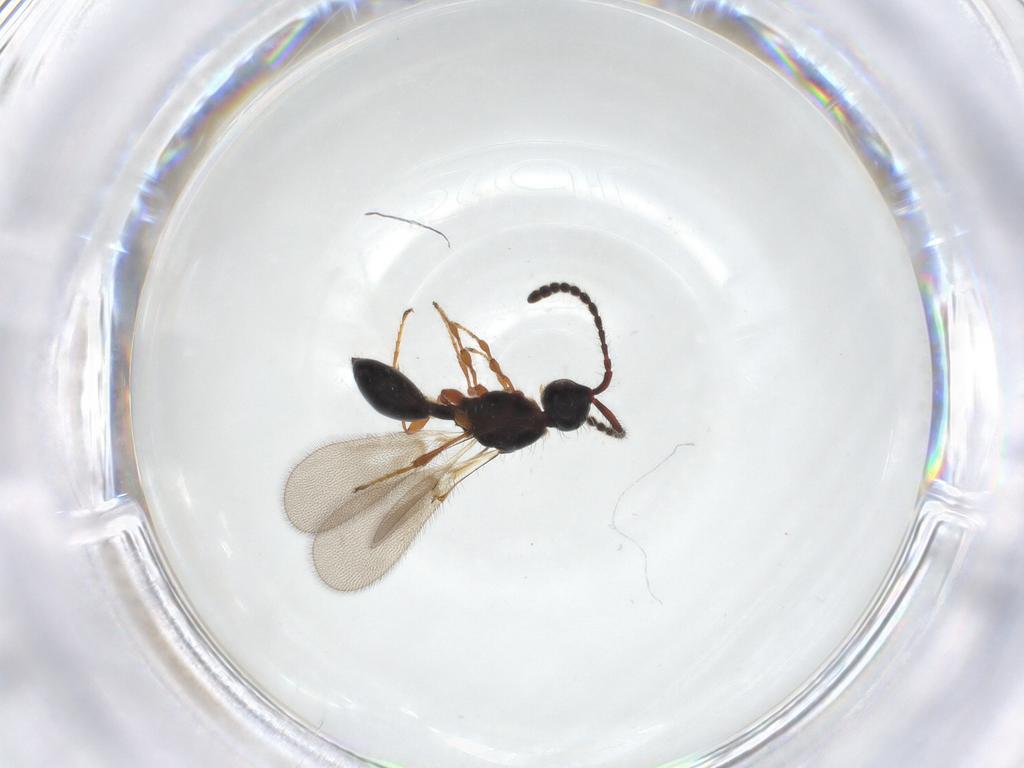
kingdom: Animalia
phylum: Arthropoda
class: Insecta
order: Hymenoptera
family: Diapriidae
